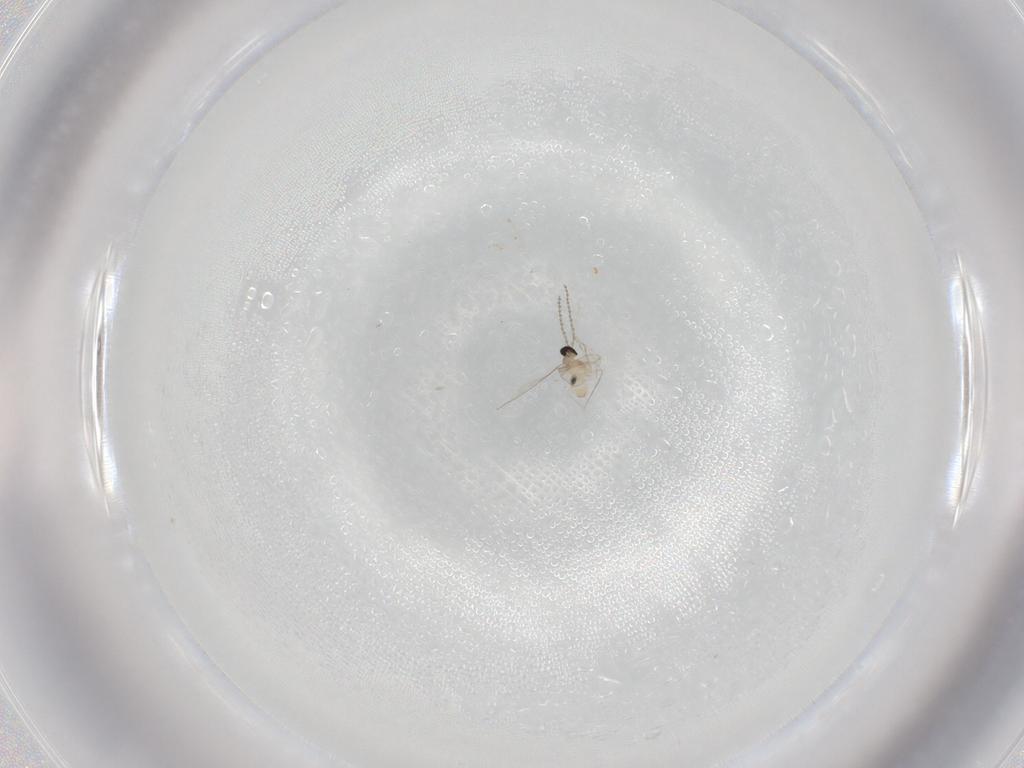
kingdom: Animalia
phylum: Arthropoda
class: Insecta
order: Diptera
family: Cecidomyiidae
